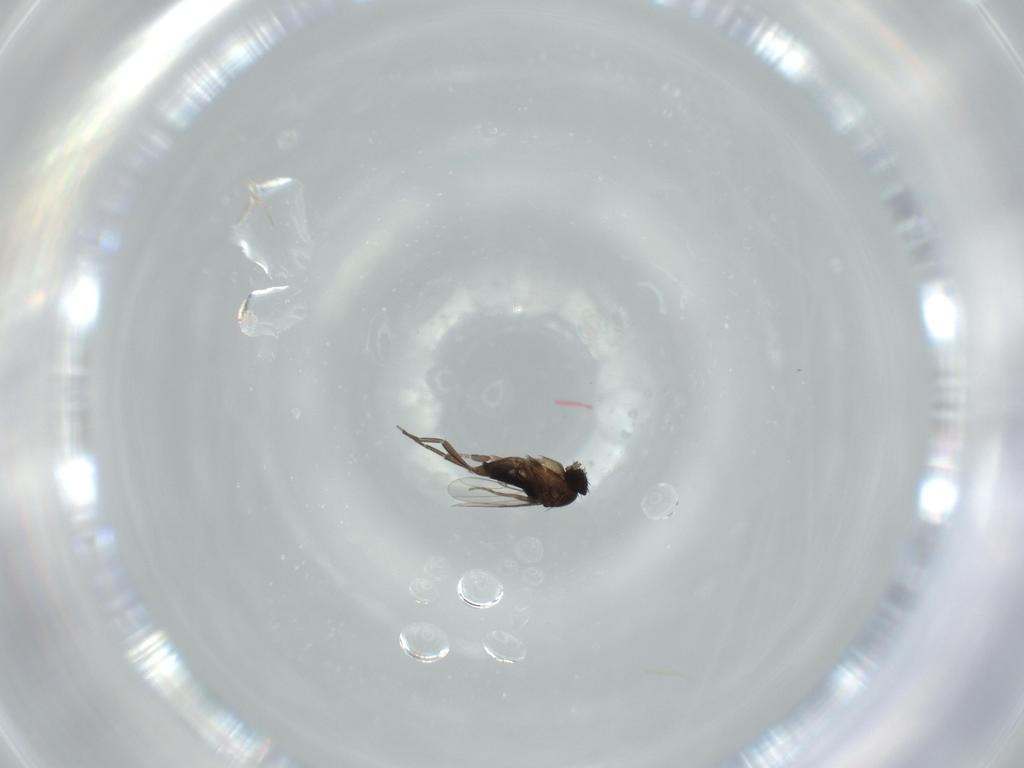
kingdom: Animalia
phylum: Arthropoda
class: Insecta
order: Diptera
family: Phoridae
